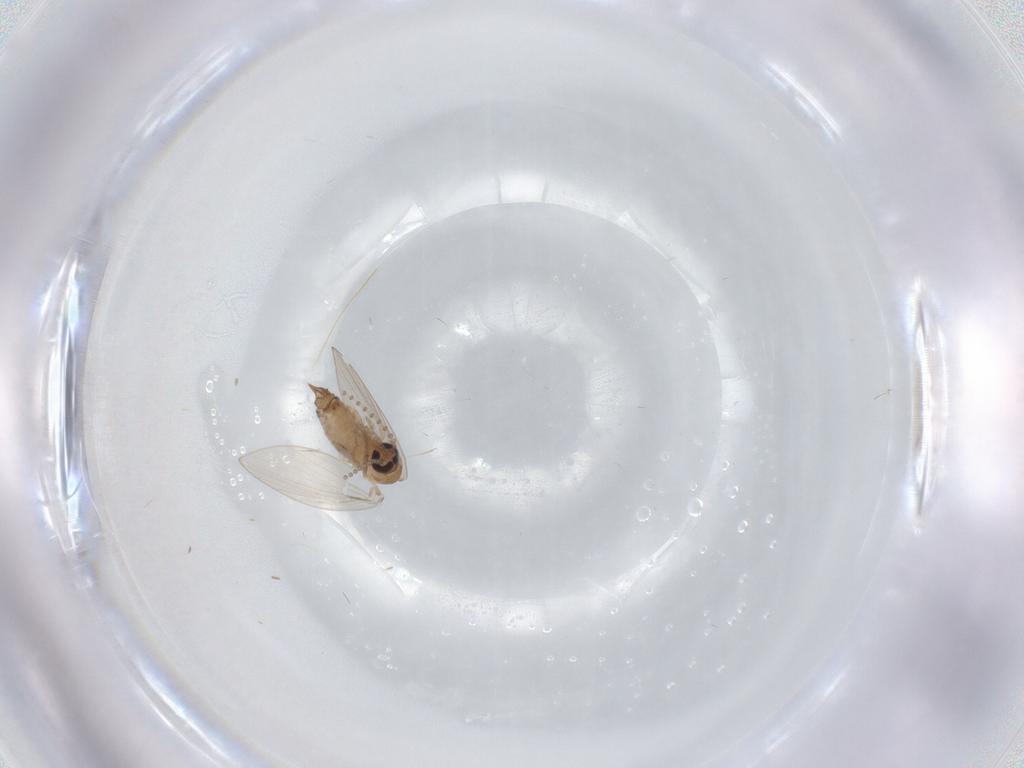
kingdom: Animalia
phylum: Arthropoda
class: Insecta
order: Diptera
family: Psychodidae
